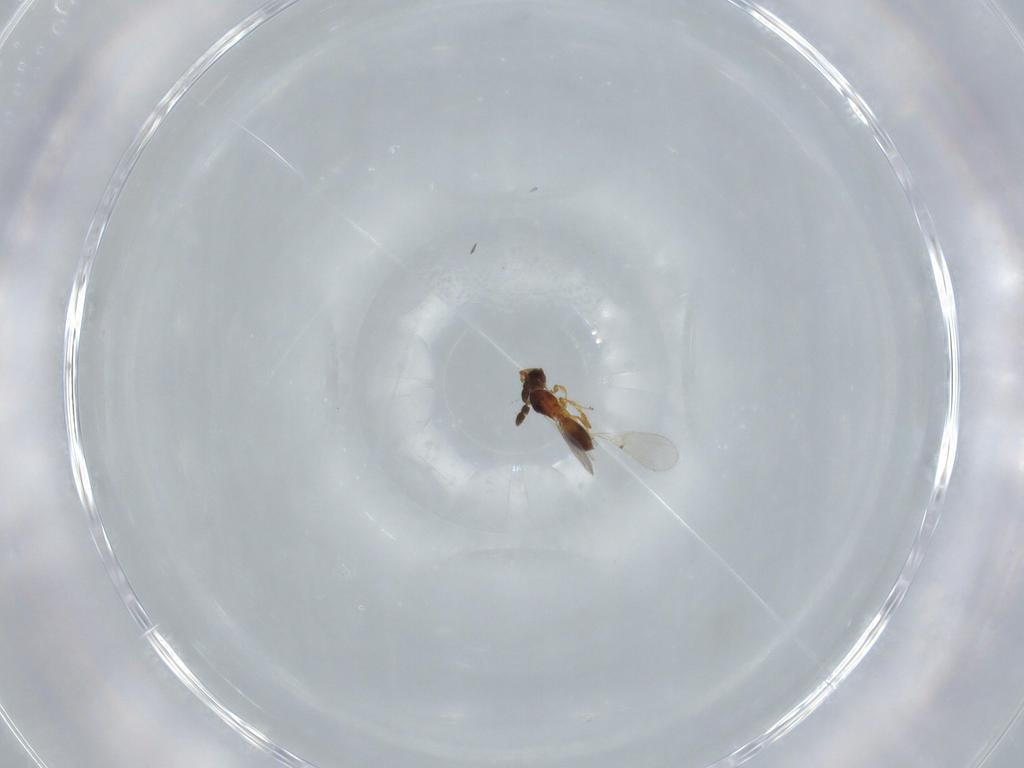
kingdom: Animalia
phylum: Arthropoda
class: Insecta
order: Hymenoptera
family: Diapriidae
